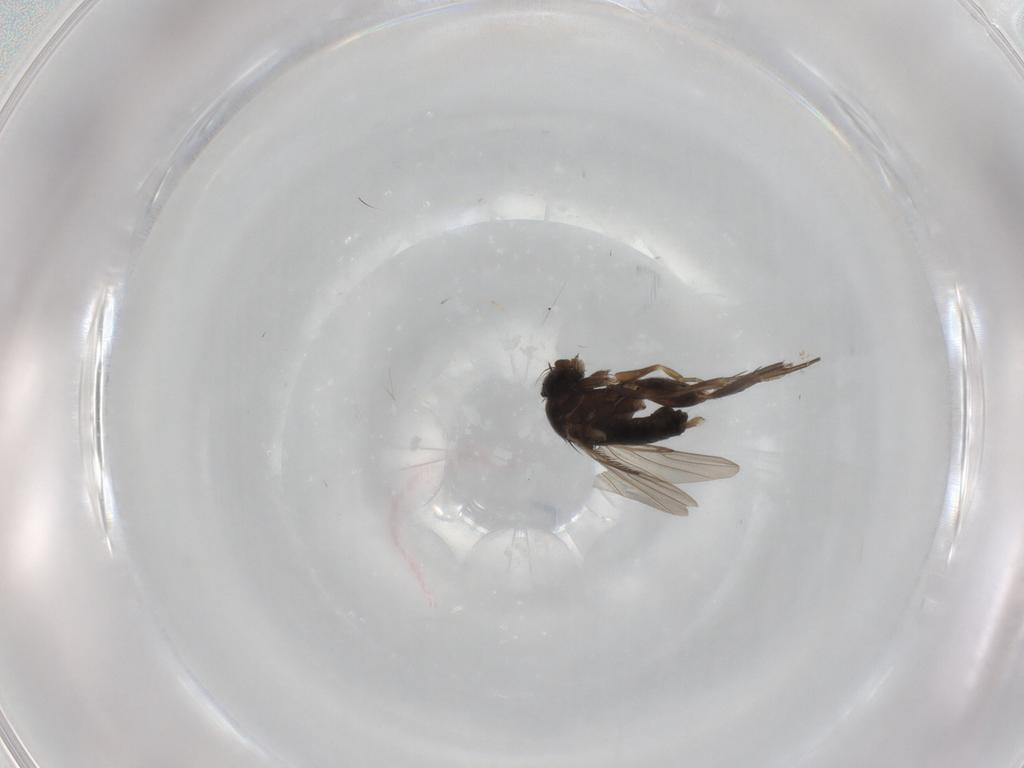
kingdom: Animalia
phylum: Arthropoda
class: Insecta
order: Diptera
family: Phoridae
